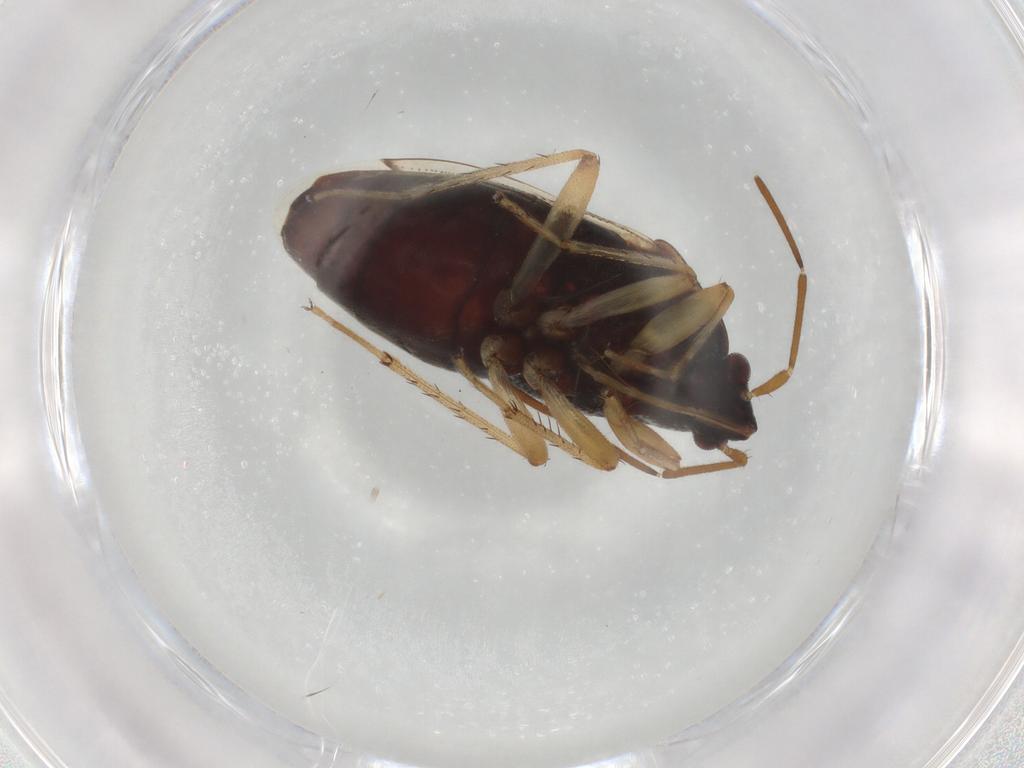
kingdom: Animalia
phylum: Arthropoda
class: Insecta
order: Hemiptera
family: Rhyparochromidae
